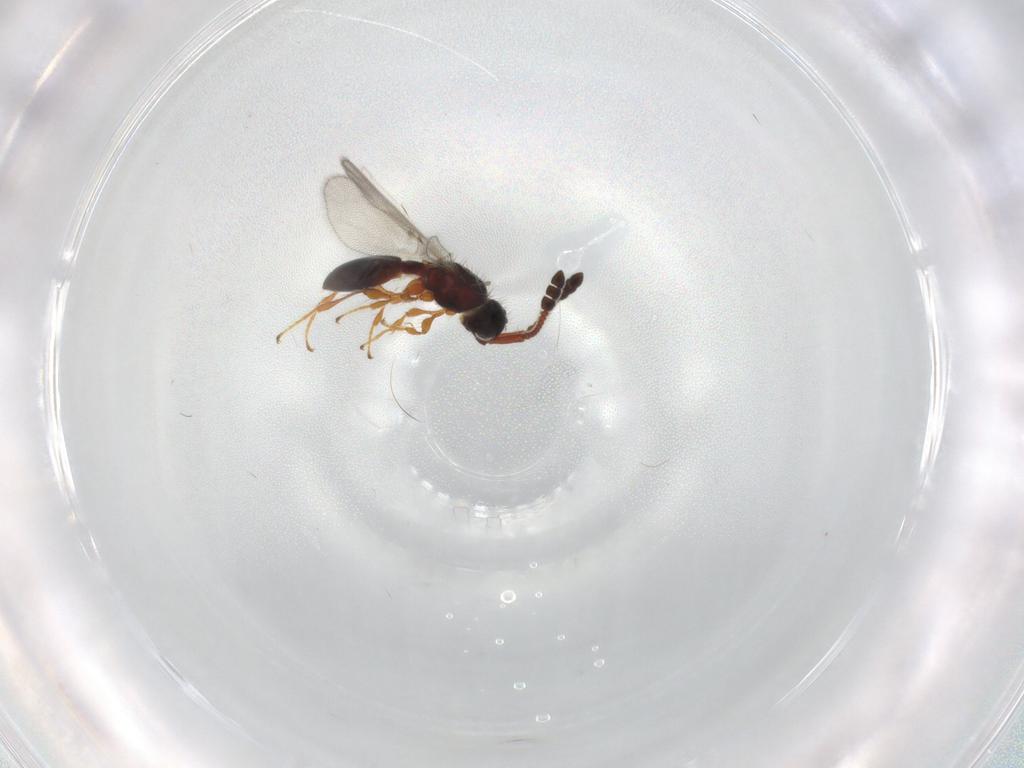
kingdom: Animalia
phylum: Arthropoda
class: Insecta
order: Hymenoptera
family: Diapriidae
